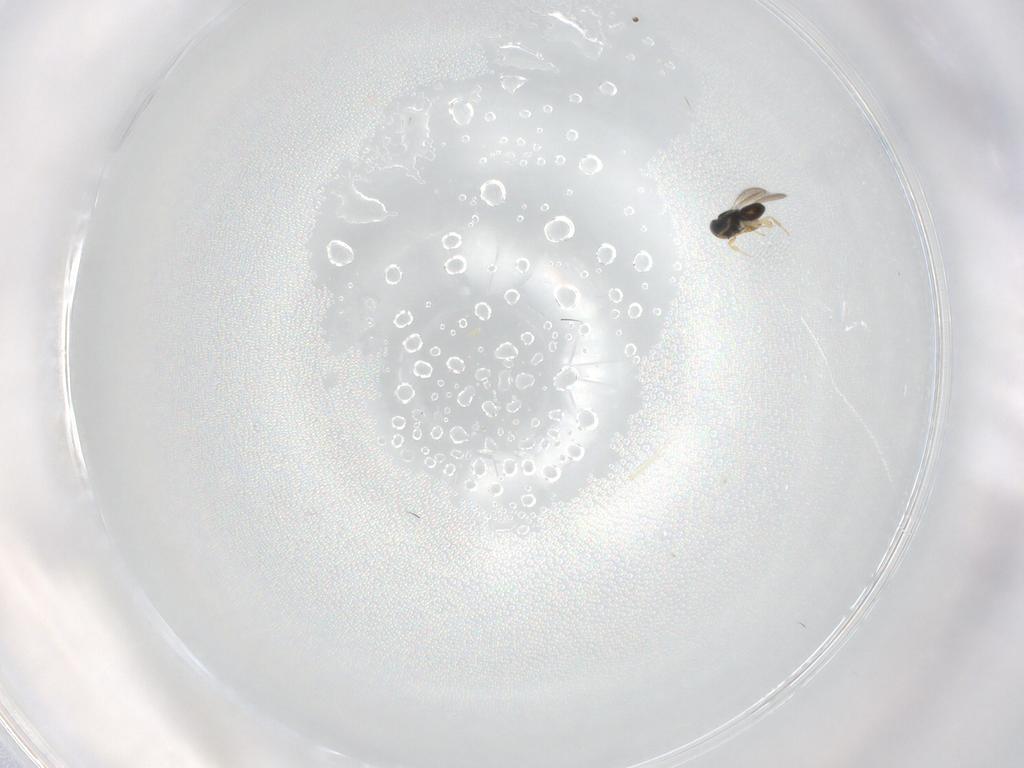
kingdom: Animalia
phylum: Arthropoda
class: Insecta
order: Hymenoptera
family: Scelionidae
